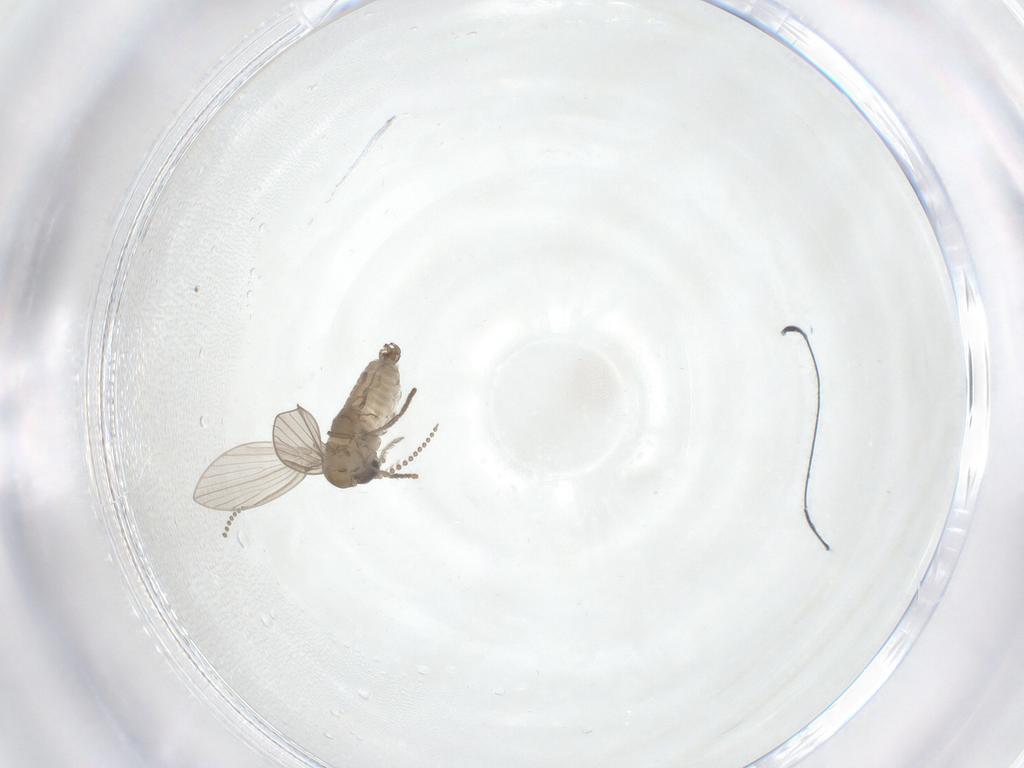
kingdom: Animalia
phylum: Arthropoda
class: Insecta
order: Diptera
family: Psychodidae
